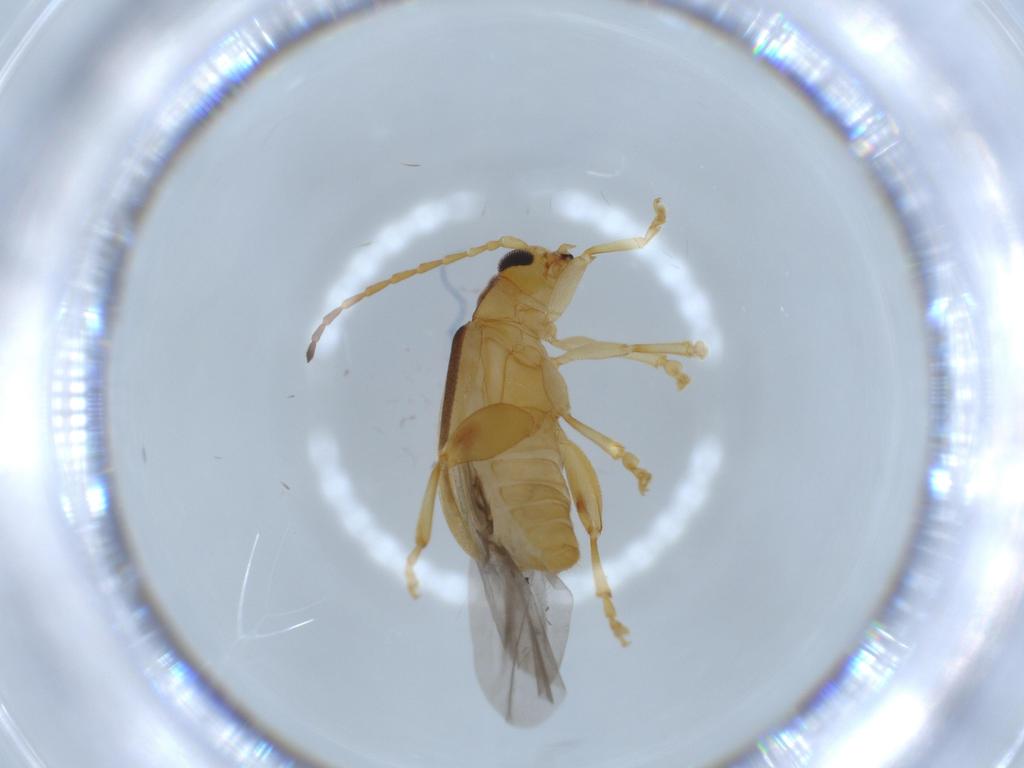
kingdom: Animalia
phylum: Arthropoda
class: Insecta
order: Coleoptera
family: Chrysomelidae
